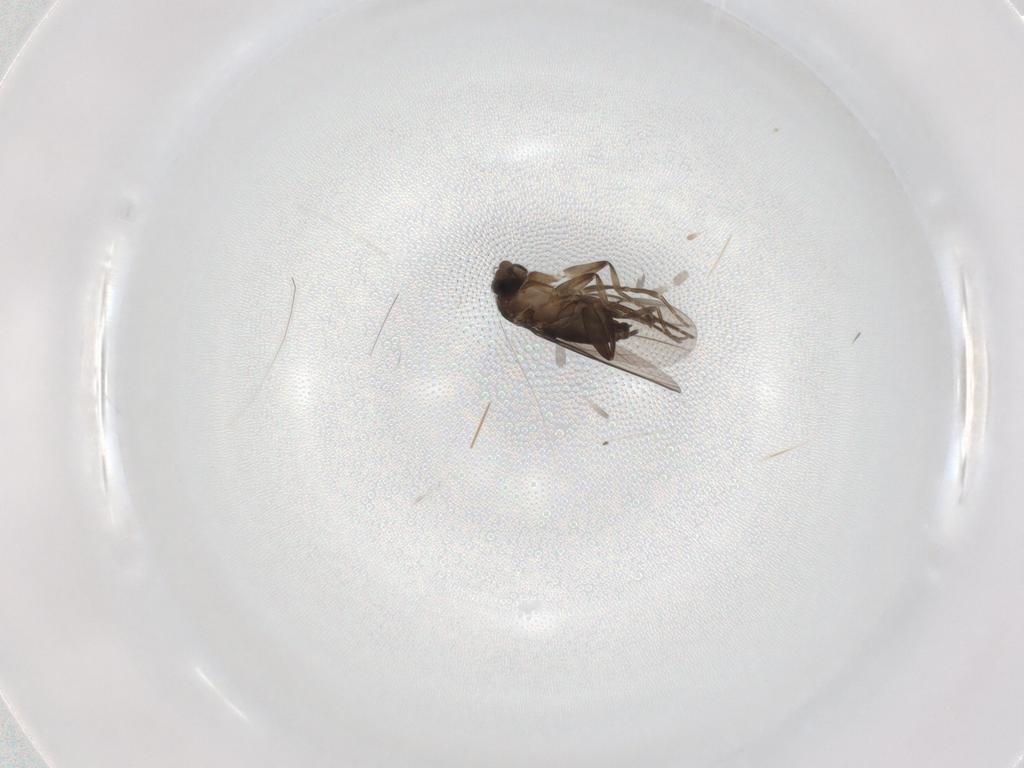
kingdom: Animalia
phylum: Arthropoda
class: Insecta
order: Diptera
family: Phoridae
